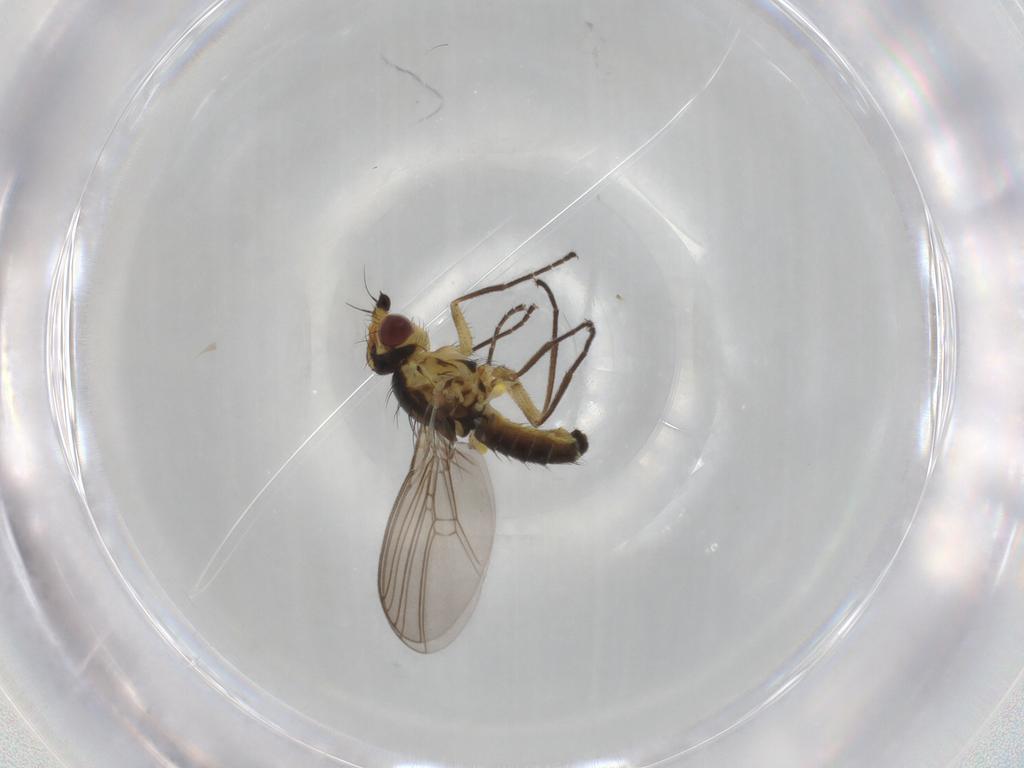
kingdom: Animalia
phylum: Arthropoda
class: Insecta
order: Diptera
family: Agromyzidae
